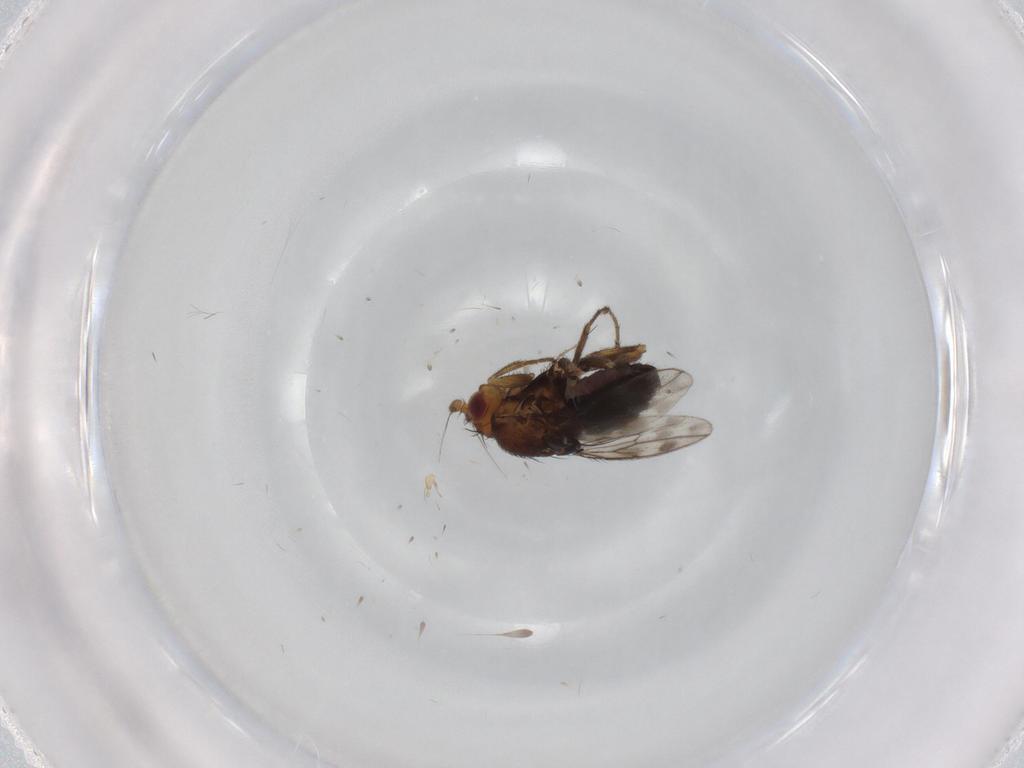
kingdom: Animalia
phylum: Arthropoda
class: Insecta
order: Diptera
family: Sphaeroceridae
